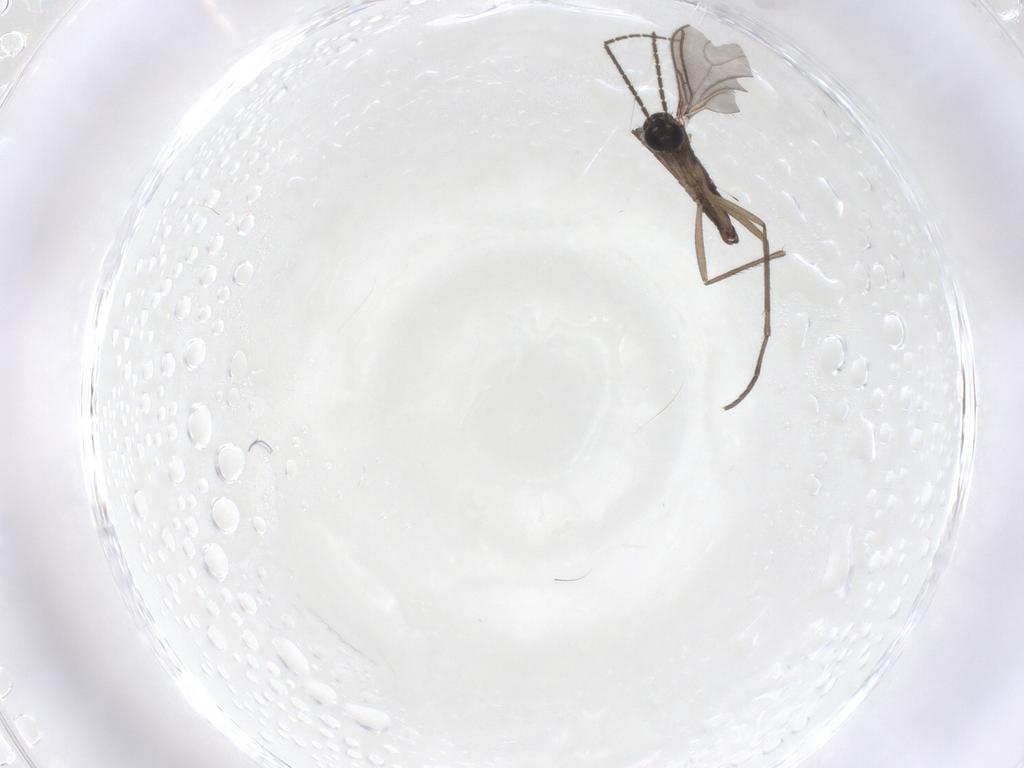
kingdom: Animalia
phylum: Arthropoda
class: Insecta
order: Diptera
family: Sciaridae
